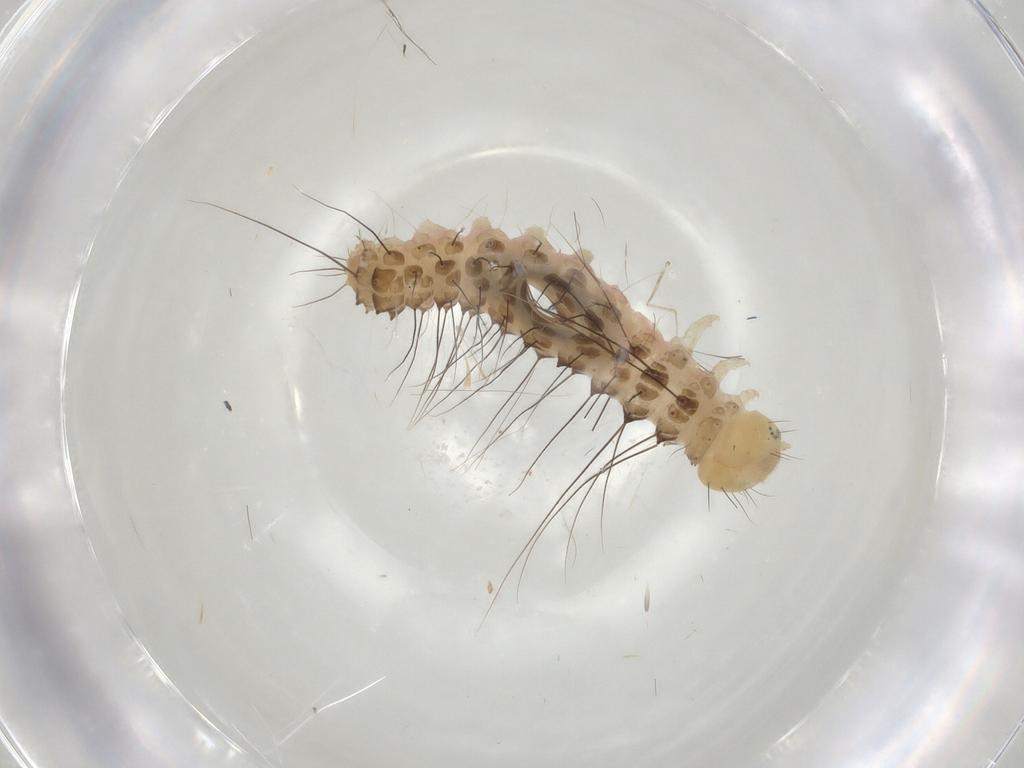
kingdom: Animalia
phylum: Arthropoda
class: Insecta
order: Lepidoptera
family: Noctuidae
